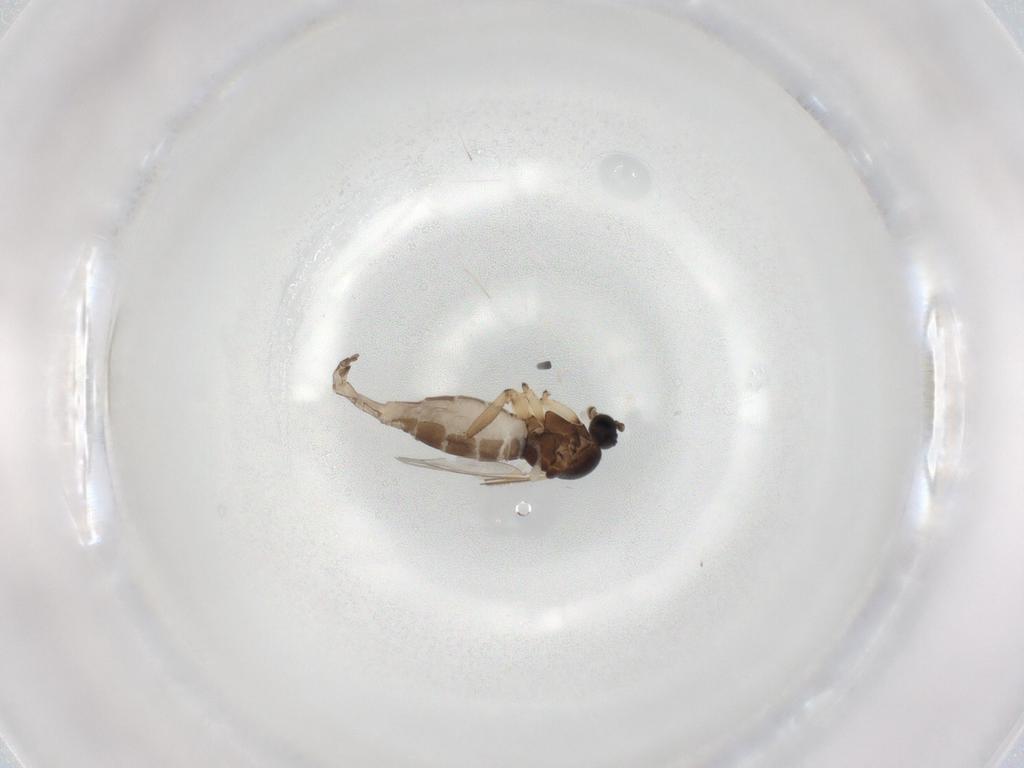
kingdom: Animalia
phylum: Arthropoda
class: Insecta
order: Diptera
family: Sciaridae
